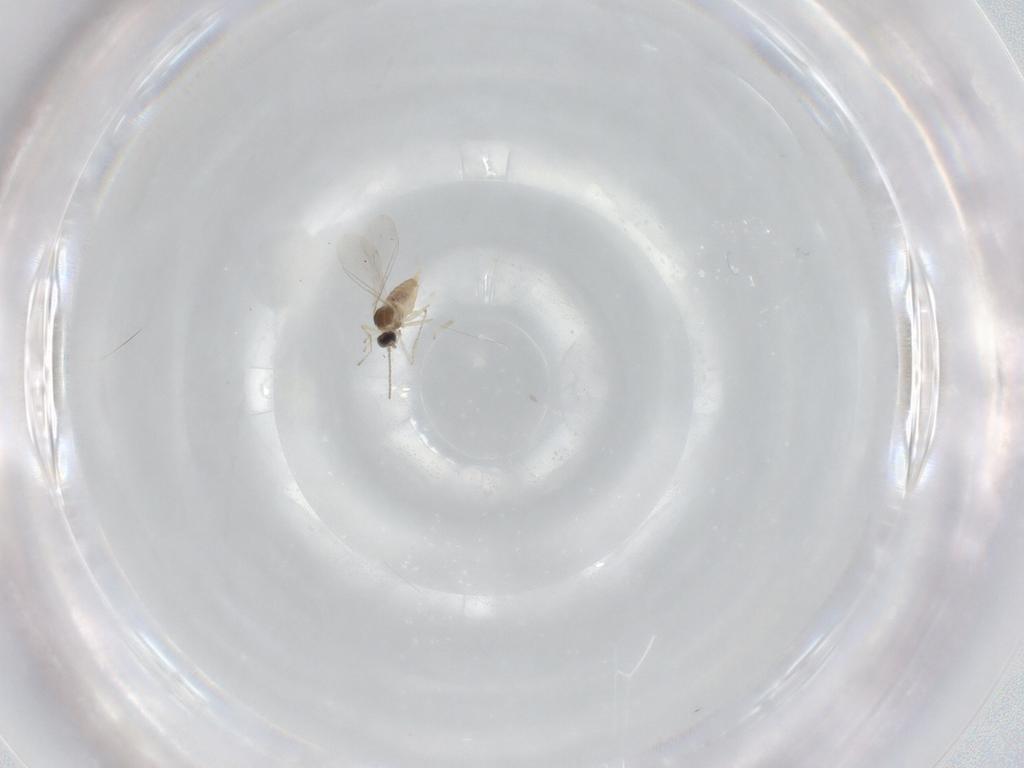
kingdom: Animalia
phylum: Arthropoda
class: Insecta
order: Diptera
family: Cecidomyiidae
